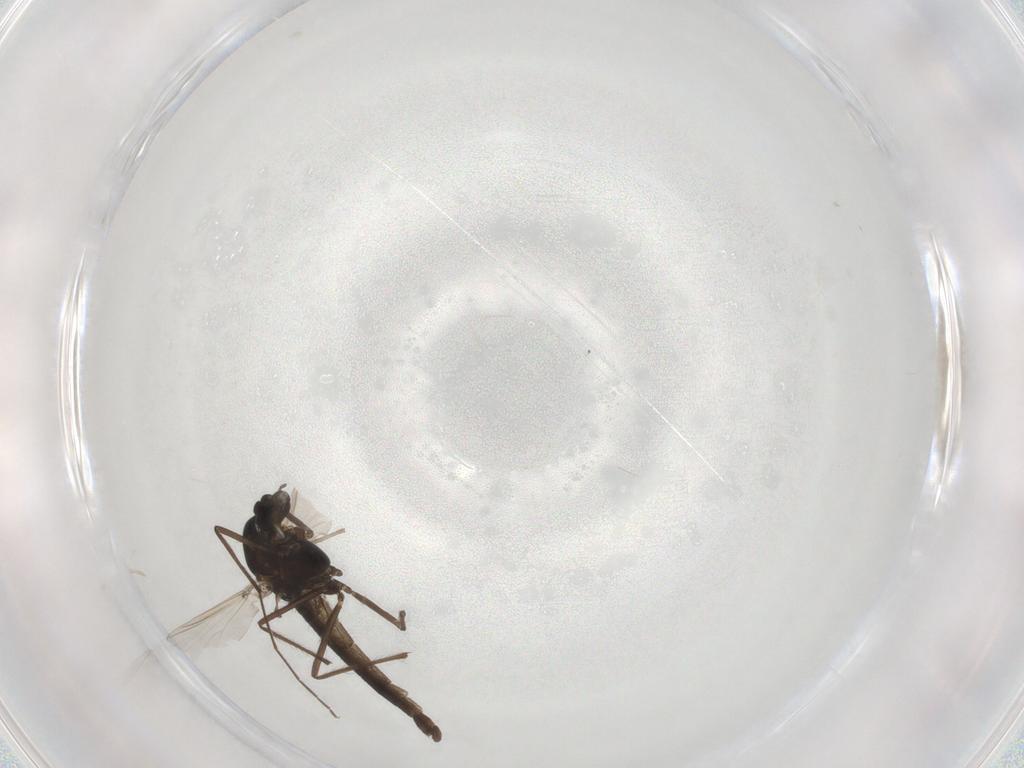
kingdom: Animalia
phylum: Arthropoda
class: Insecta
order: Diptera
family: Chironomidae
